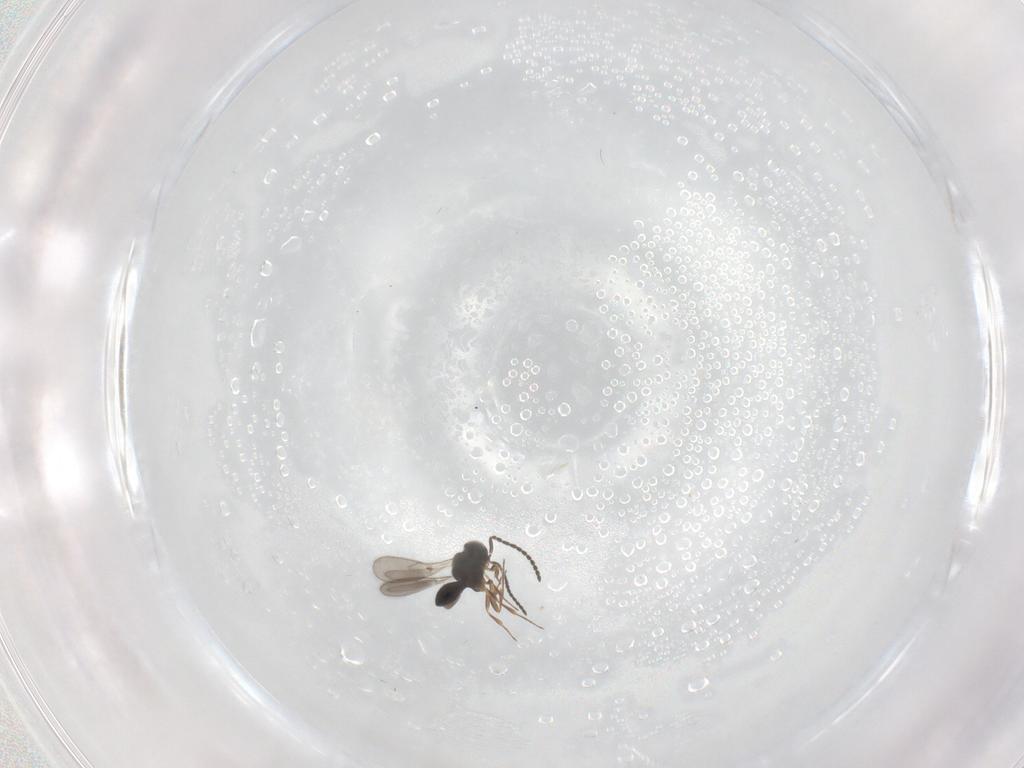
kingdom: Animalia
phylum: Arthropoda
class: Insecta
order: Hymenoptera
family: Scelionidae
